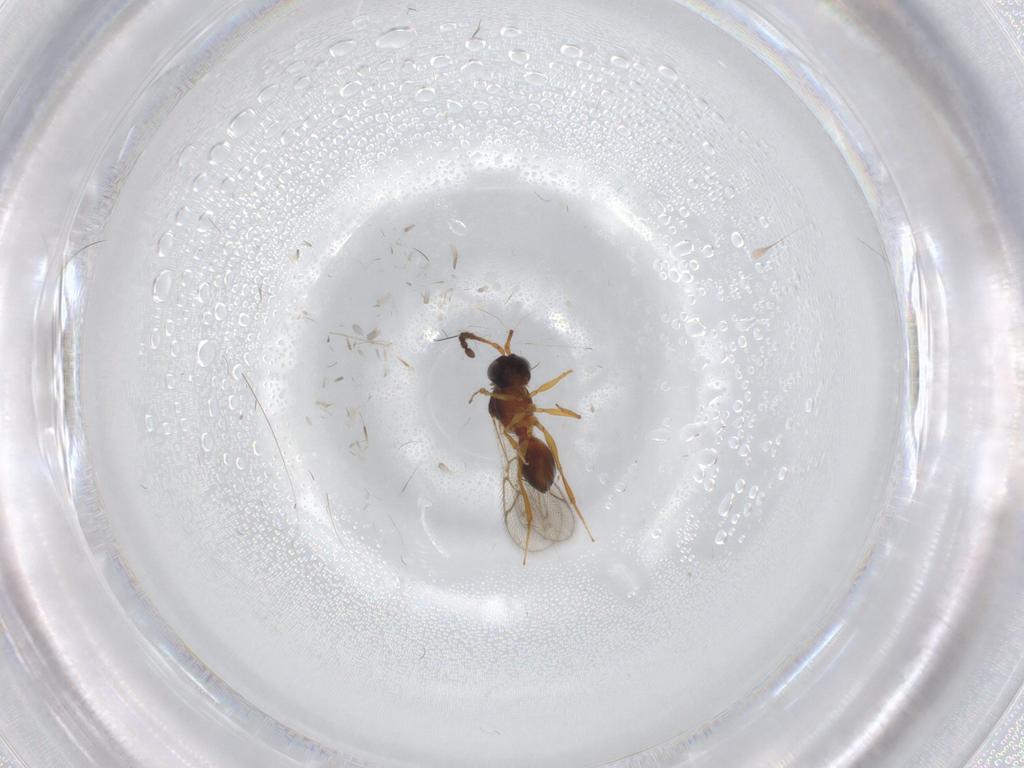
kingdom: Animalia
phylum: Arthropoda
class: Insecta
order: Hymenoptera
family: Figitidae
